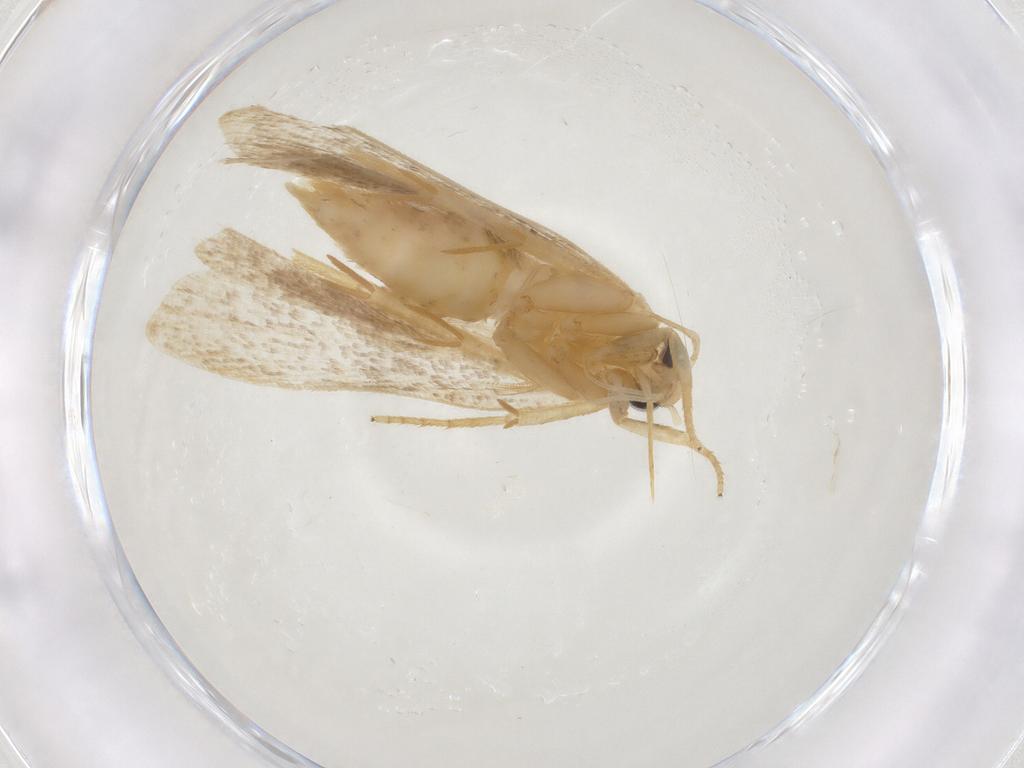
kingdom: Animalia
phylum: Arthropoda
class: Insecta
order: Lepidoptera
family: Gelechiidae
